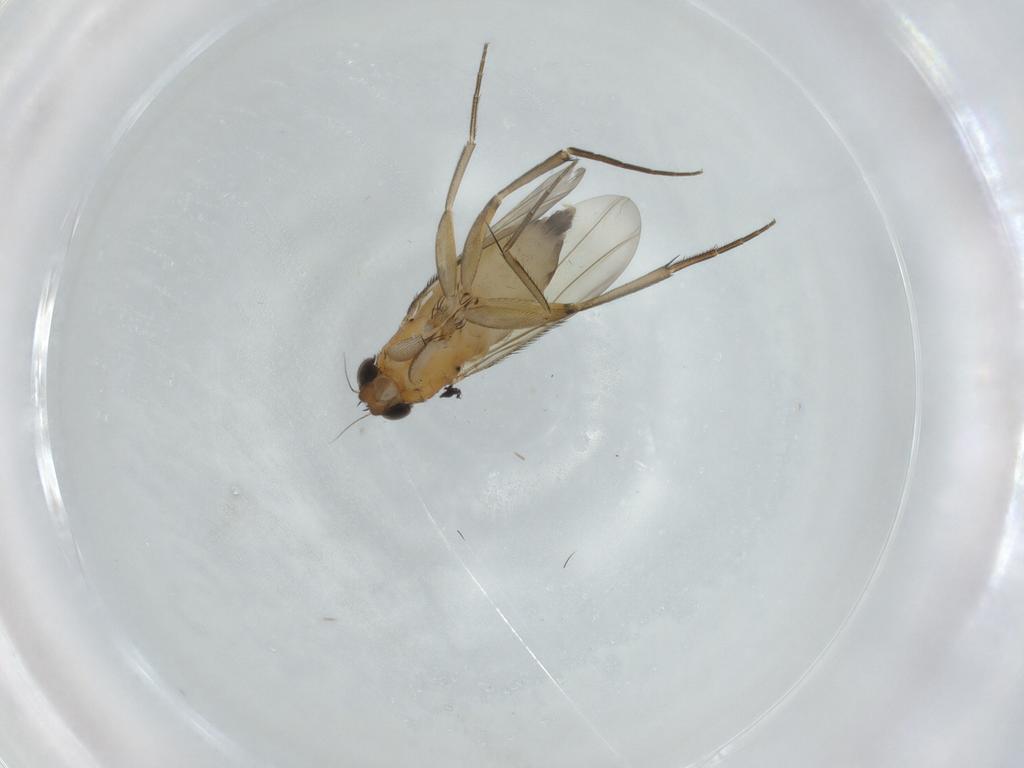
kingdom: Animalia
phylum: Arthropoda
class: Insecta
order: Diptera
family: Phoridae
